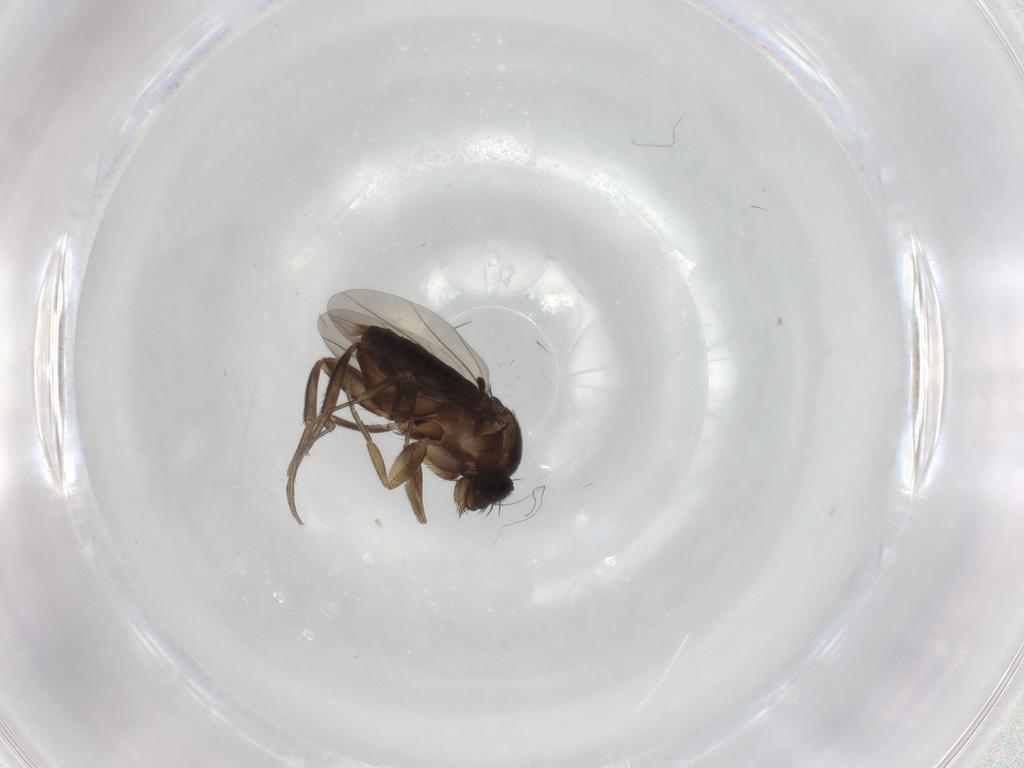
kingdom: Animalia
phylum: Arthropoda
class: Insecta
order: Diptera
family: Phoridae
